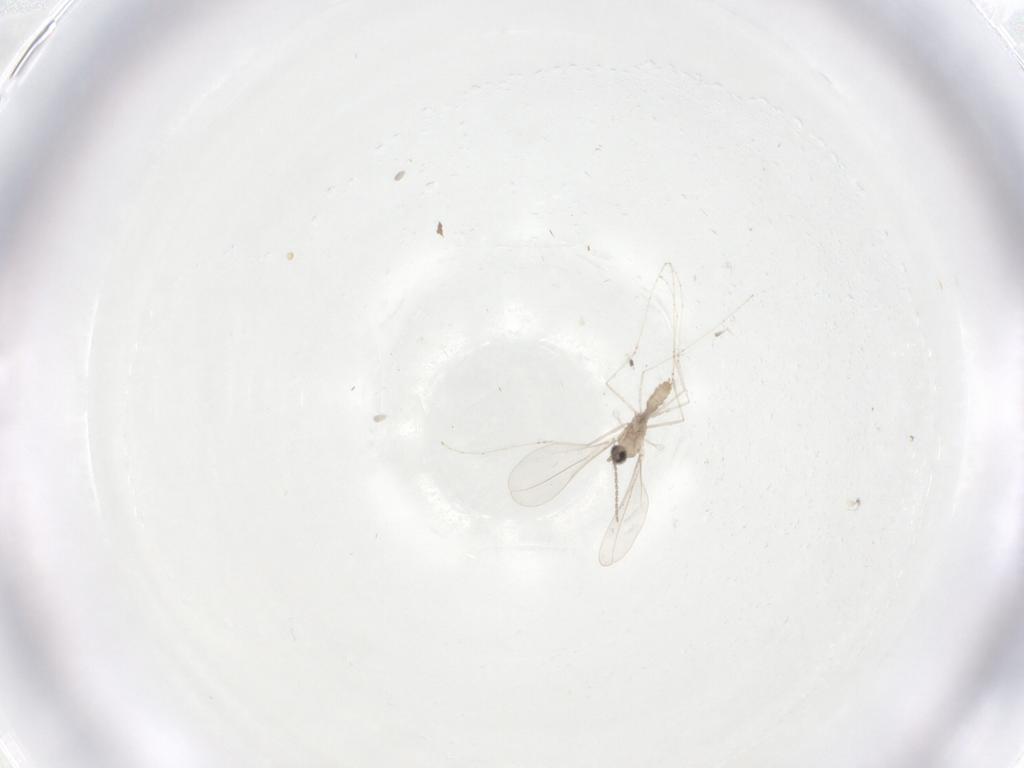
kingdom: Animalia
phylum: Arthropoda
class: Insecta
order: Diptera
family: Cecidomyiidae
